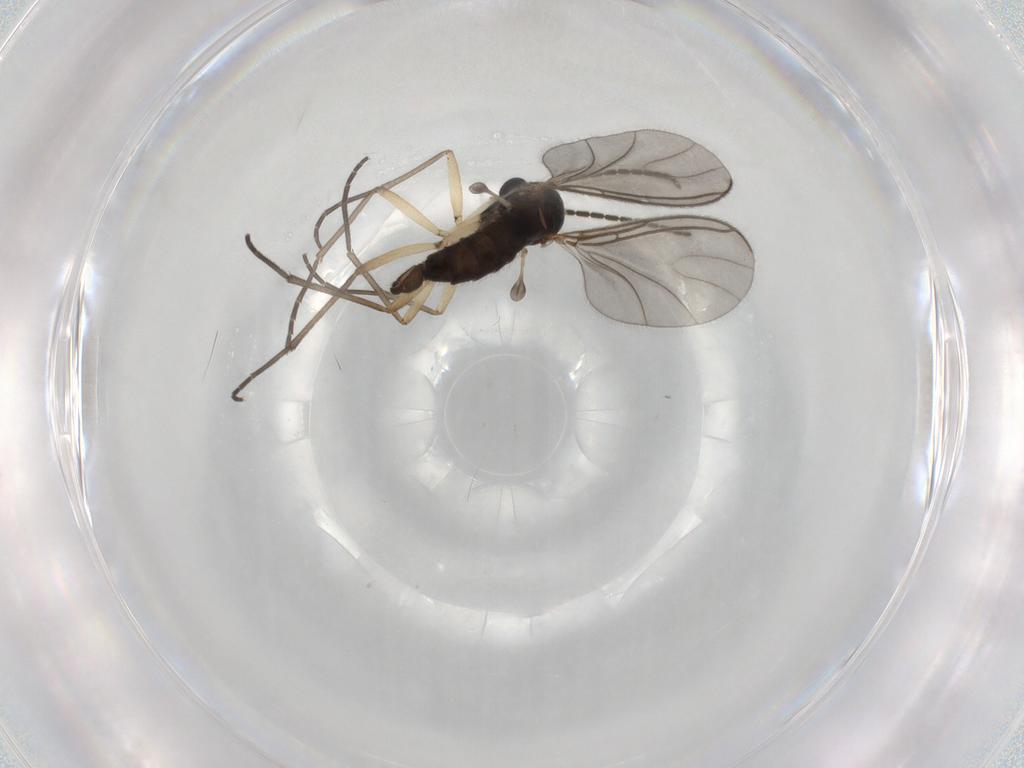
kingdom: Animalia
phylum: Arthropoda
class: Insecta
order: Diptera
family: Sciaridae
